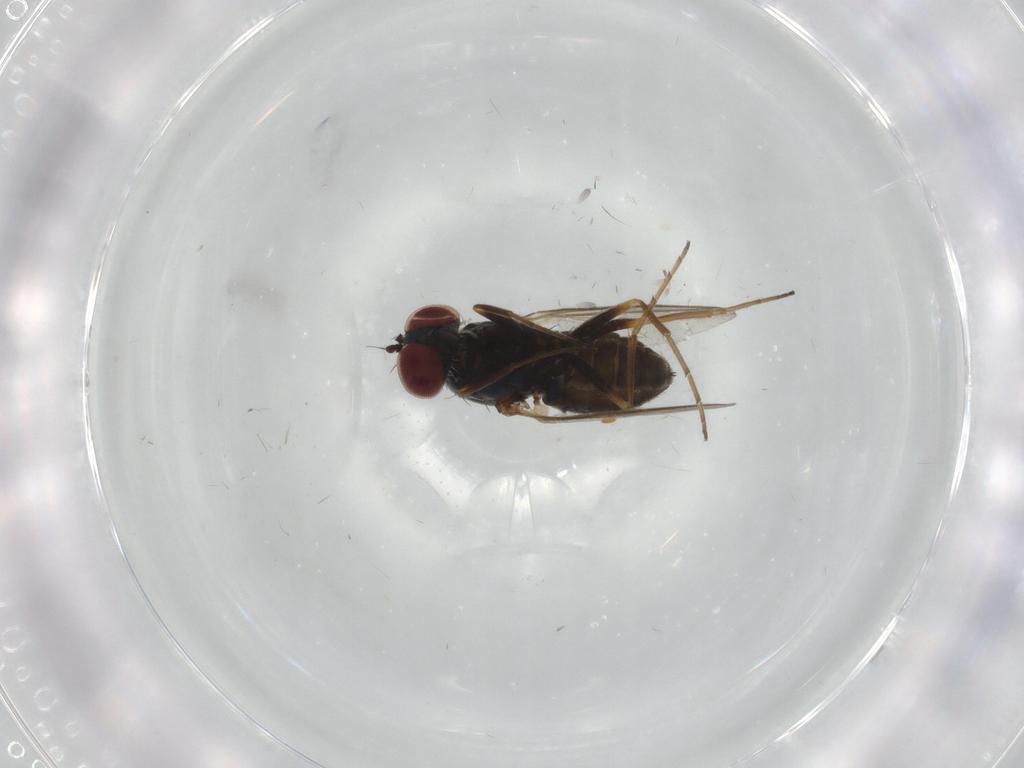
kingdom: Animalia
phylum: Arthropoda
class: Insecta
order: Diptera
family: Dolichopodidae
